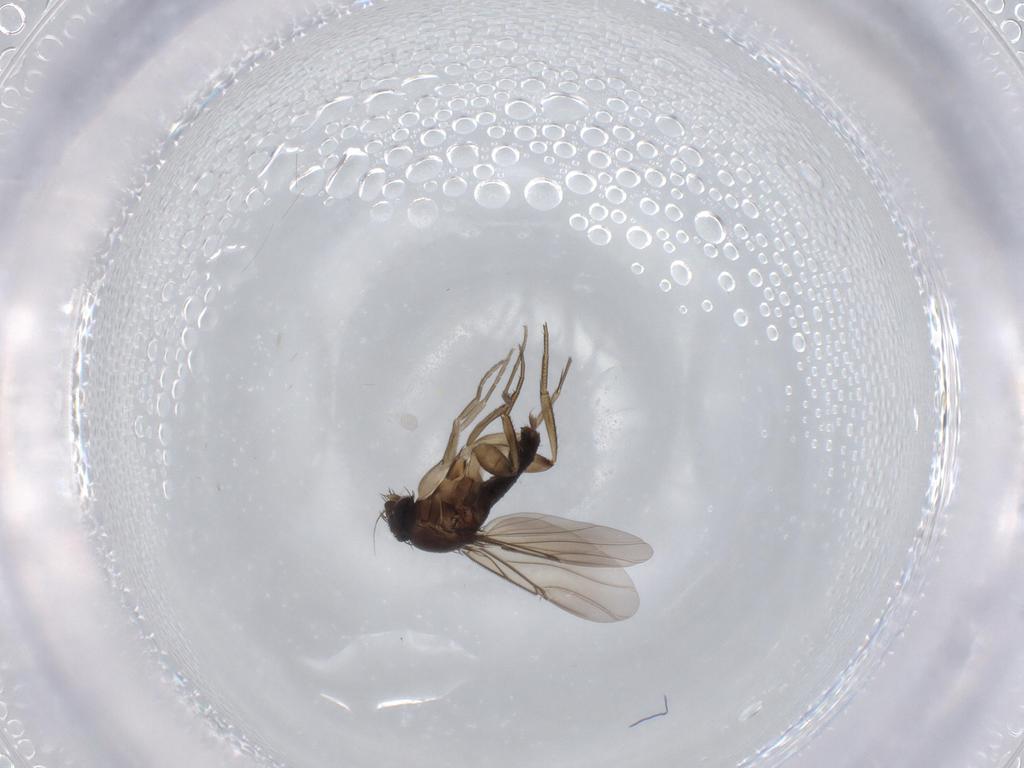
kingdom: Animalia
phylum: Arthropoda
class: Insecta
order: Diptera
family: Phoridae
